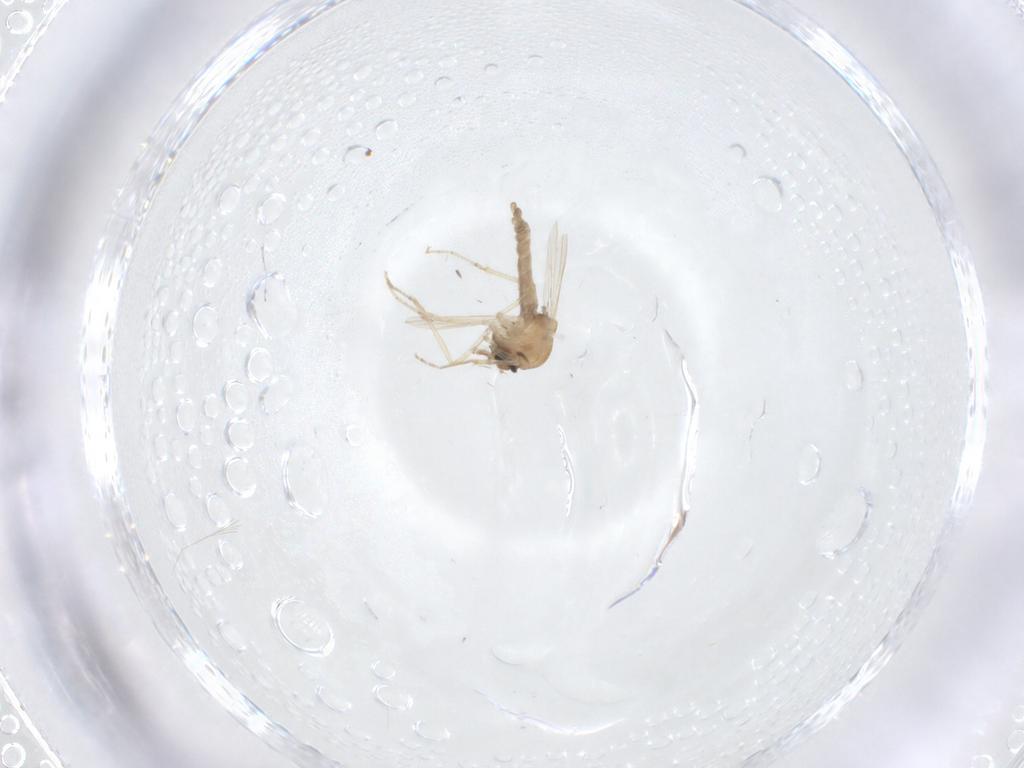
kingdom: Animalia
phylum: Arthropoda
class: Insecta
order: Diptera
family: Ceratopogonidae
